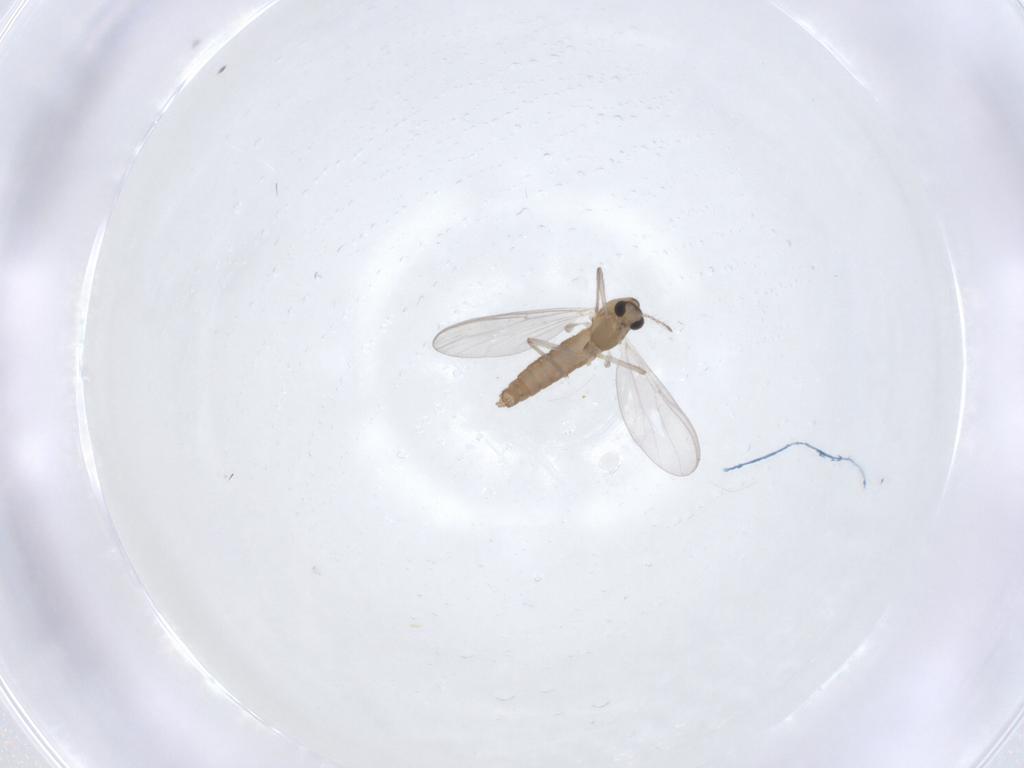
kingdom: Animalia
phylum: Arthropoda
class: Insecta
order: Diptera
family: Chironomidae
